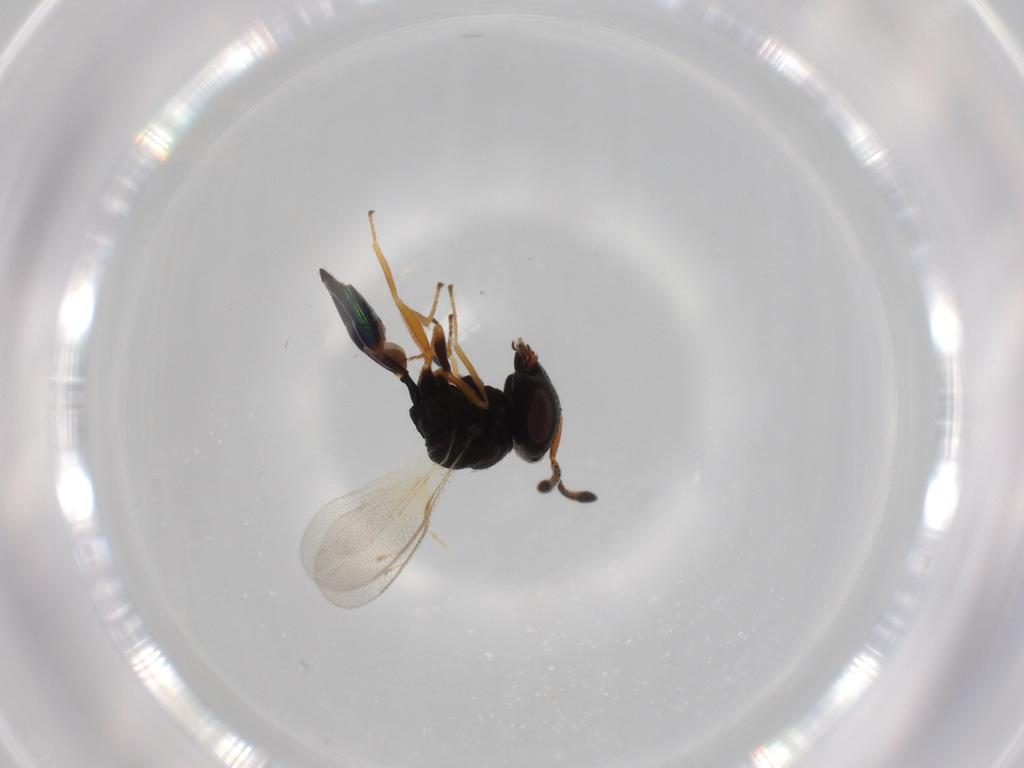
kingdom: Animalia
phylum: Arthropoda
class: Insecta
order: Hymenoptera
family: Pteromalidae
